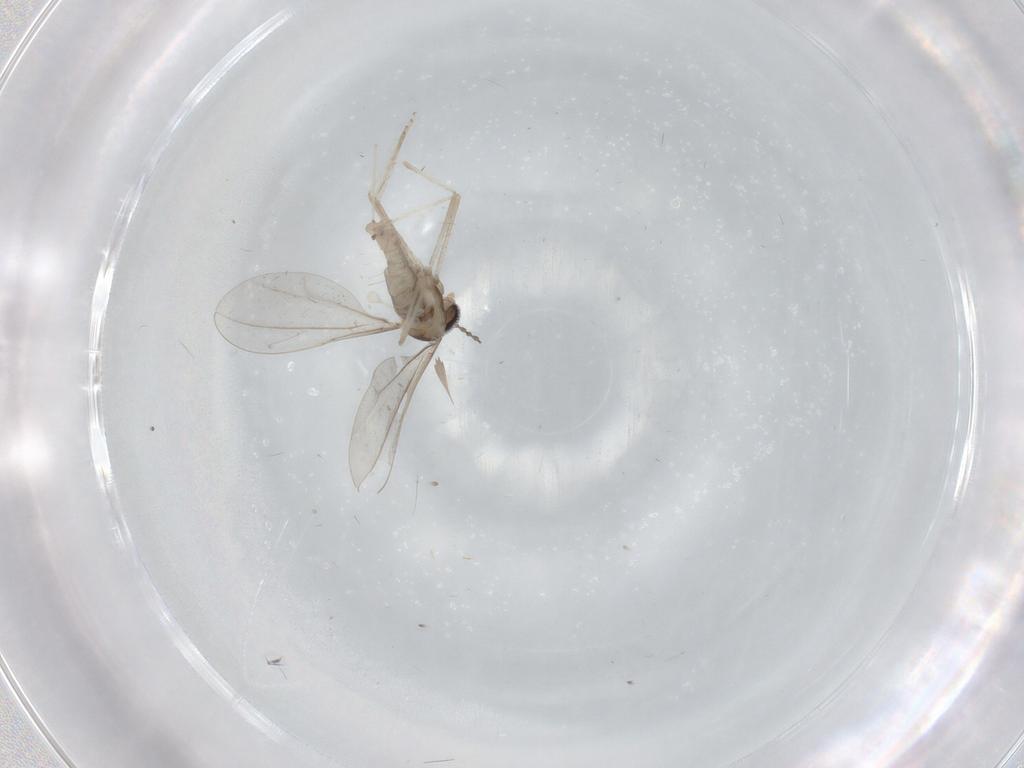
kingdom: Animalia
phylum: Arthropoda
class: Insecta
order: Diptera
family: Cecidomyiidae
